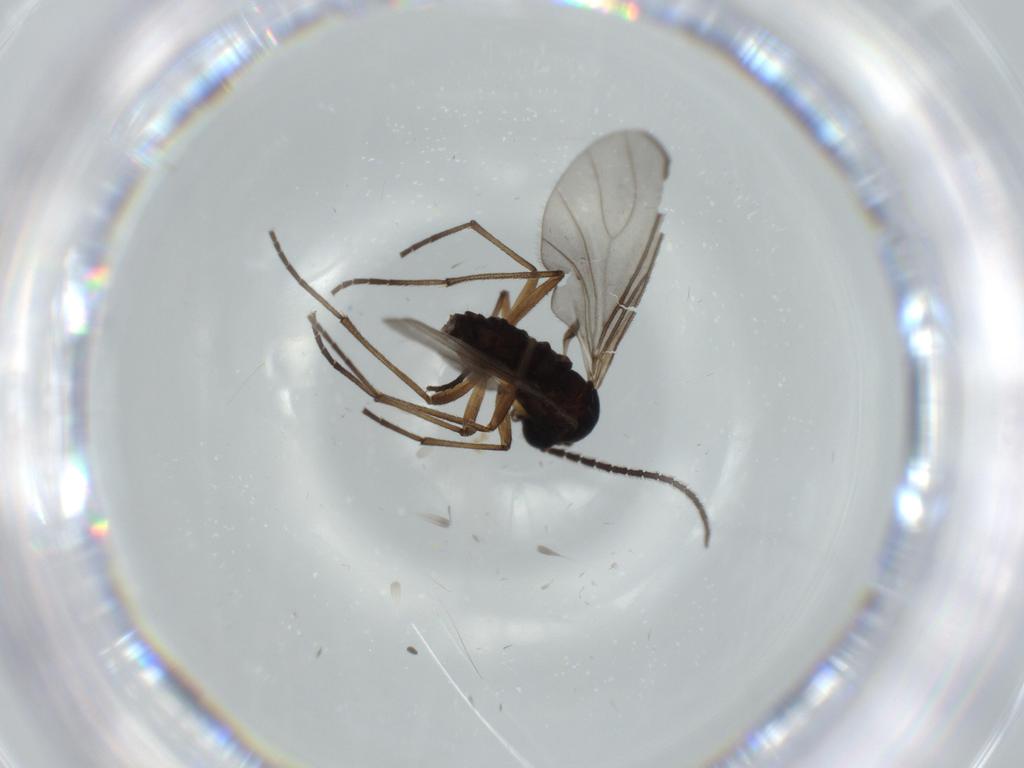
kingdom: Animalia
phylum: Arthropoda
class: Insecta
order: Diptera
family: Sciaridae
